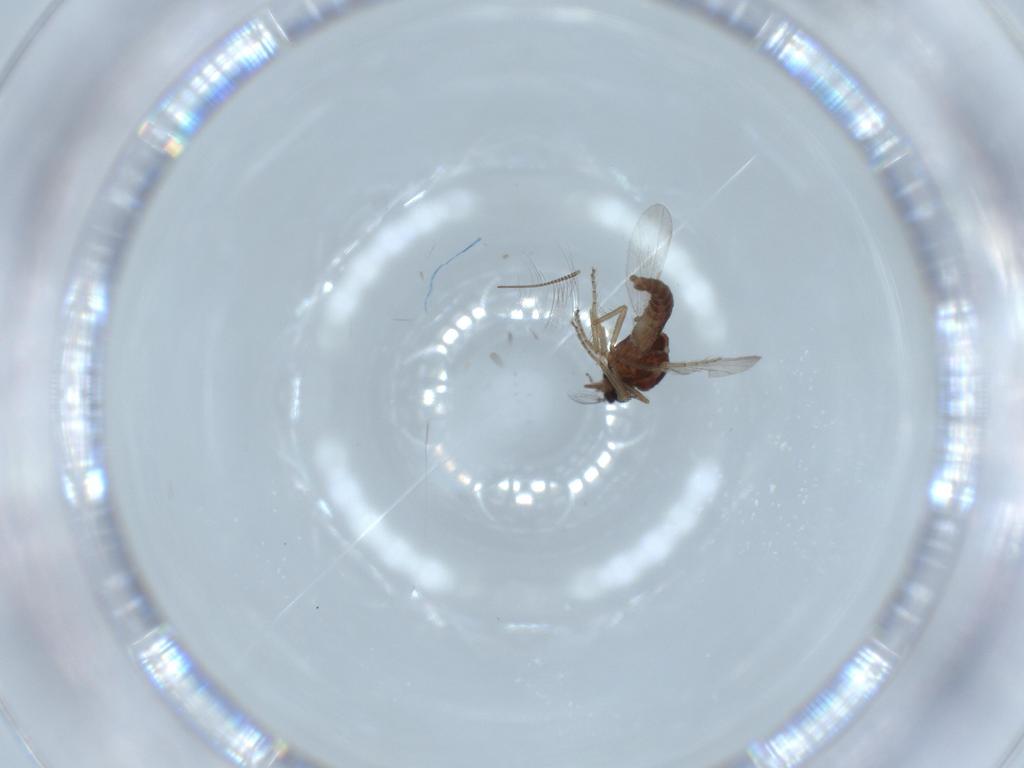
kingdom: Animalia
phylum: Arthropoda
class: Insecta
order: Diptera
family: Ceratopogonidae
